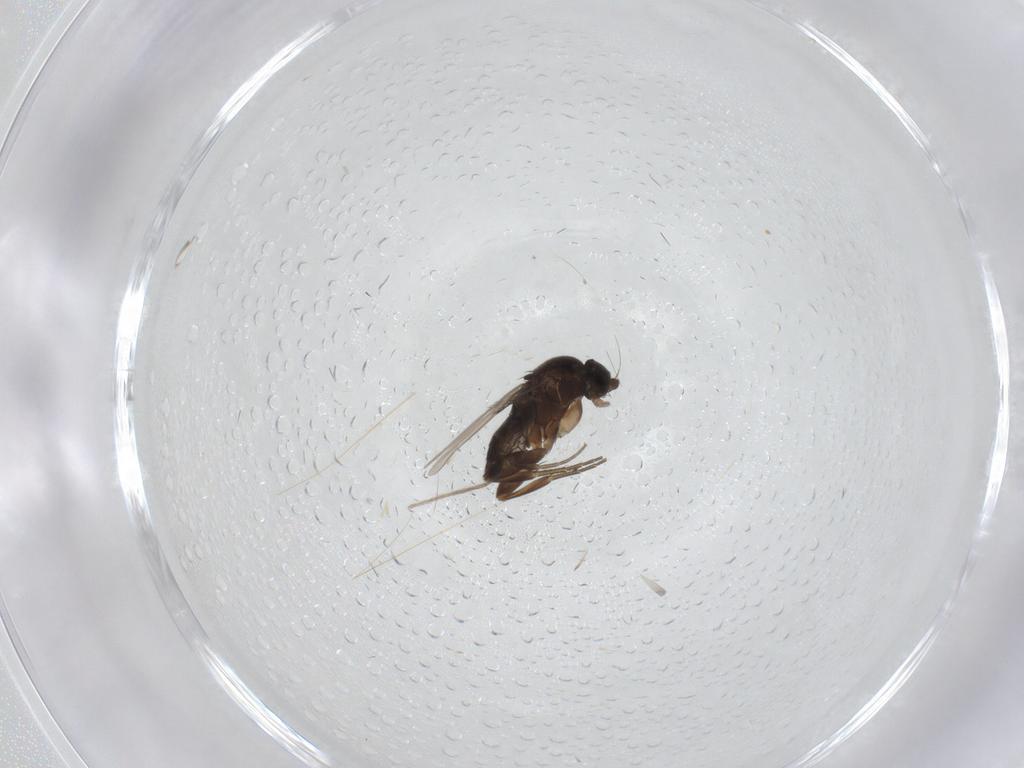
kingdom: Animalia
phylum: Arthropoda
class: Insecta
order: Diptera
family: Phoridae
